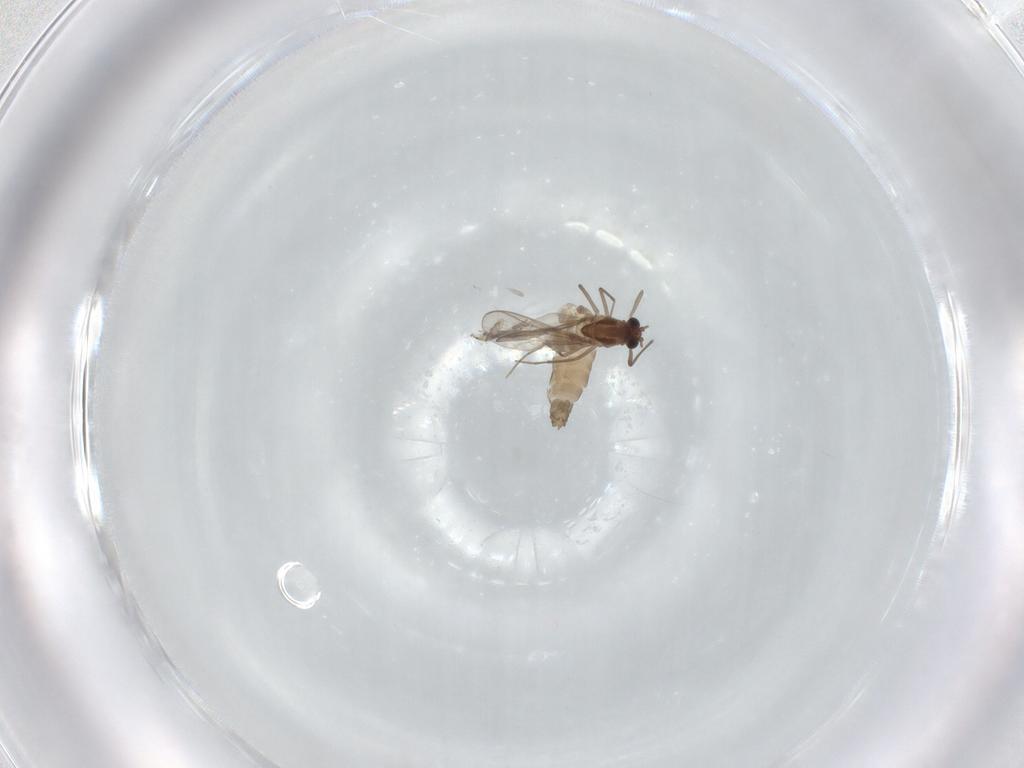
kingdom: Animalia
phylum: Arthropoda
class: Insecta
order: Diptera
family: Chironomidae
